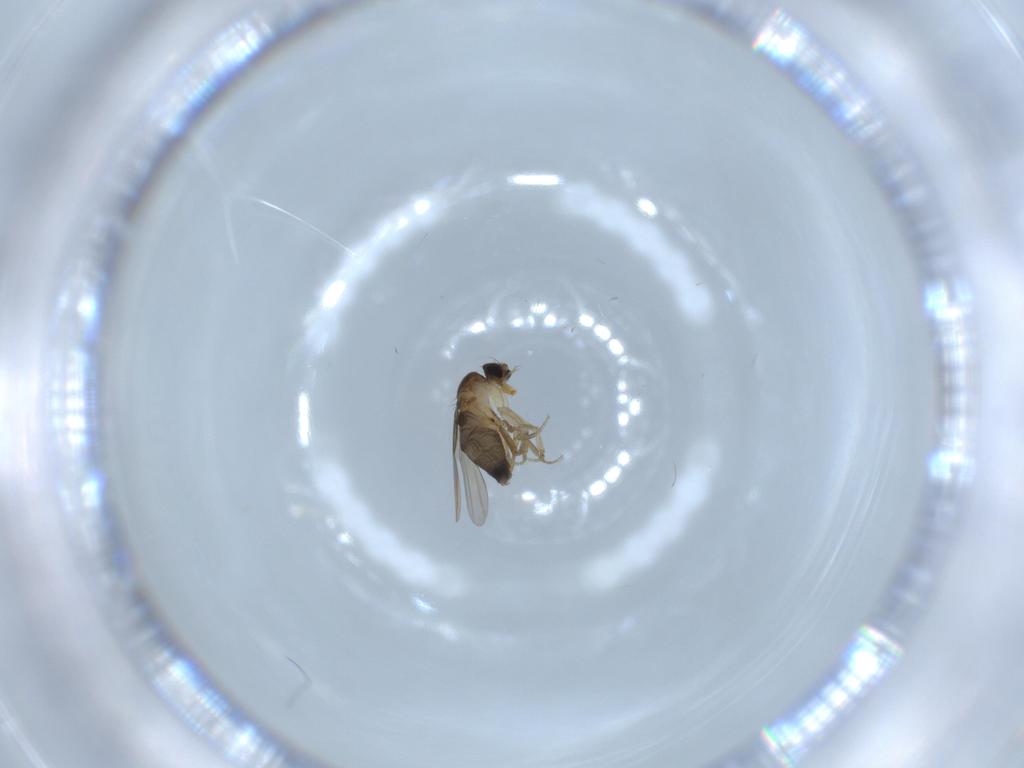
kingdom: Animalia
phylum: Arthropoda
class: Insecta
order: Diptera
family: Phoridae
